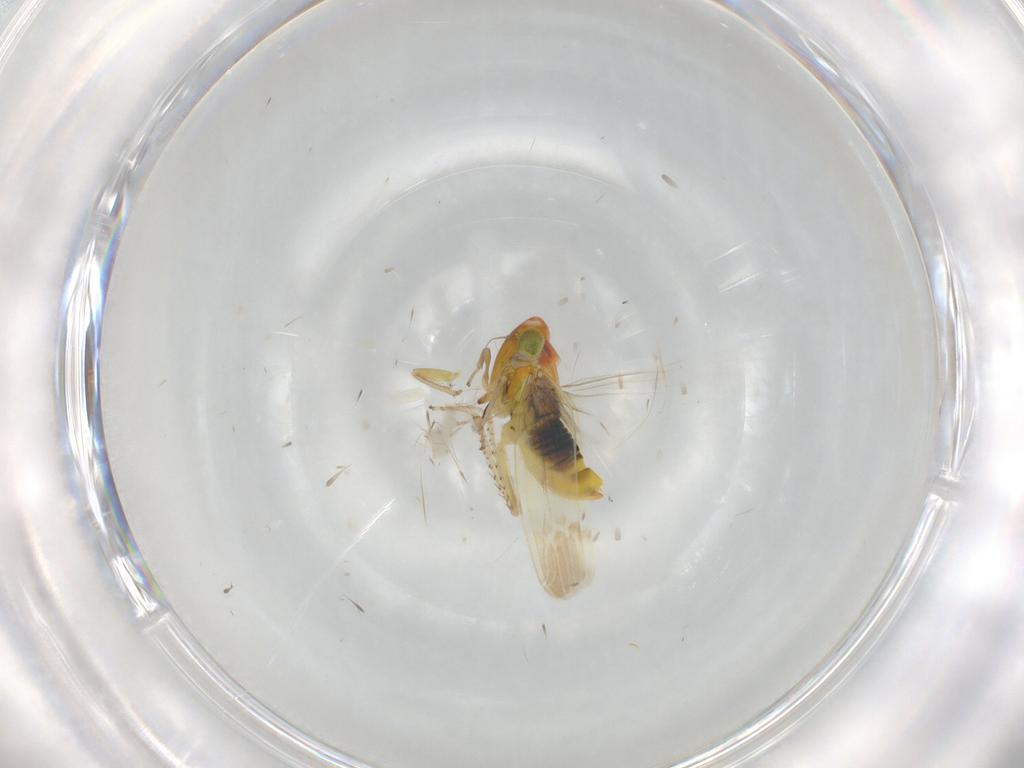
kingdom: Animalia
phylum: Arthropoda
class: Insecta
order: Hemiptera
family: Cicadellidae
